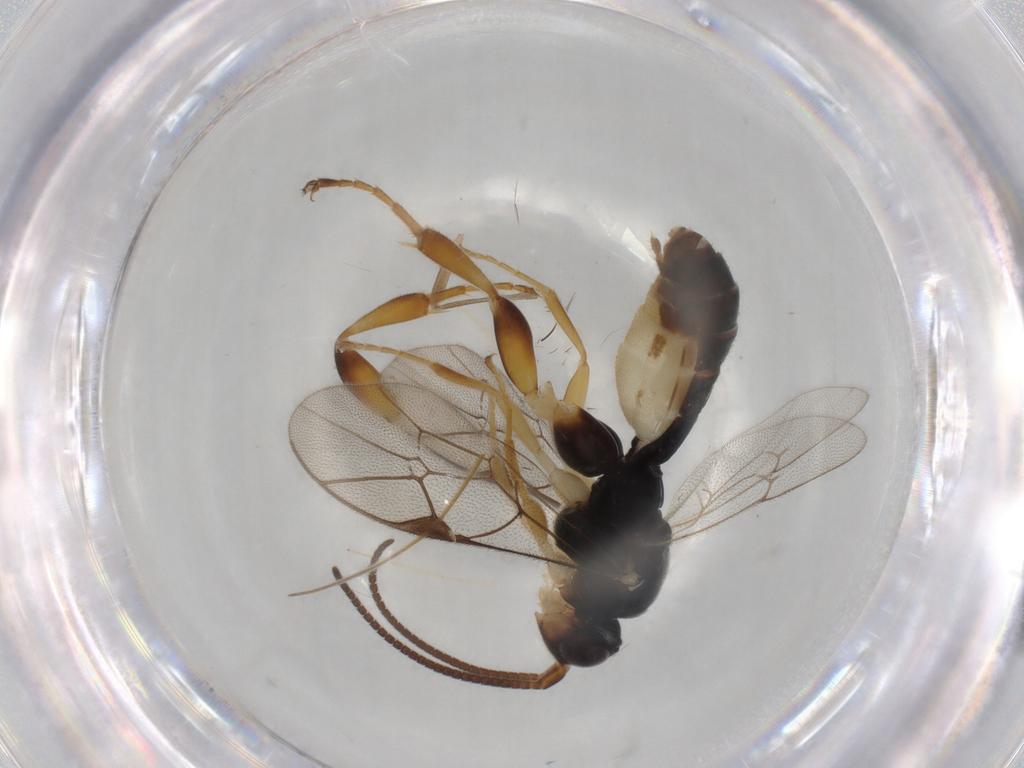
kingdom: Animalia
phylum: Arthropoda
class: Insecta
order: Hymenoptera
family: Ichneumonidae
